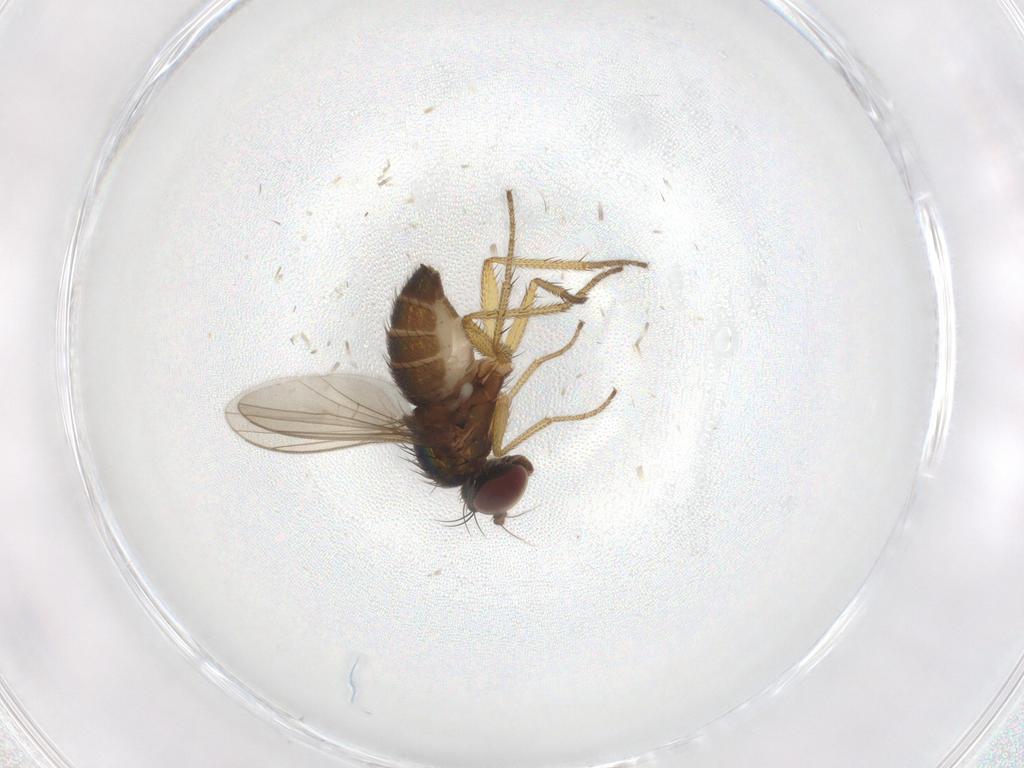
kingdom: Animalia
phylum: Arthropoda
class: Insecta
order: Diptera
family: Dolichopodidae
